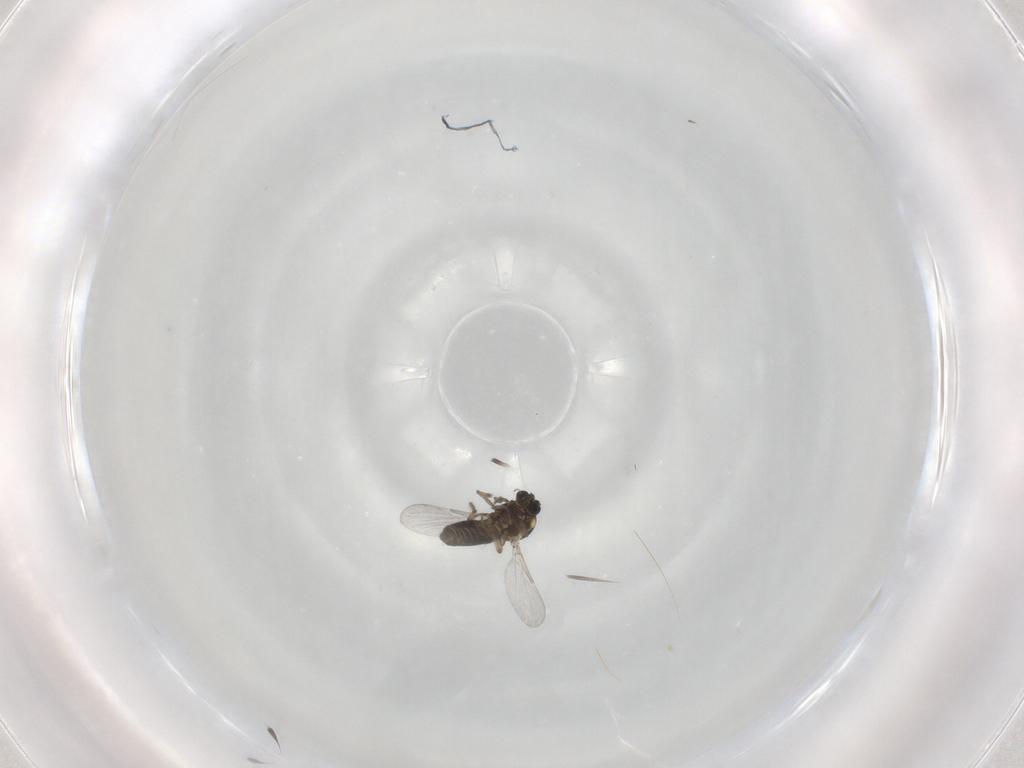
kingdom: Animalia
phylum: Arthropoda
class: Insecta
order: Diptera
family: Ceratopogonidae
